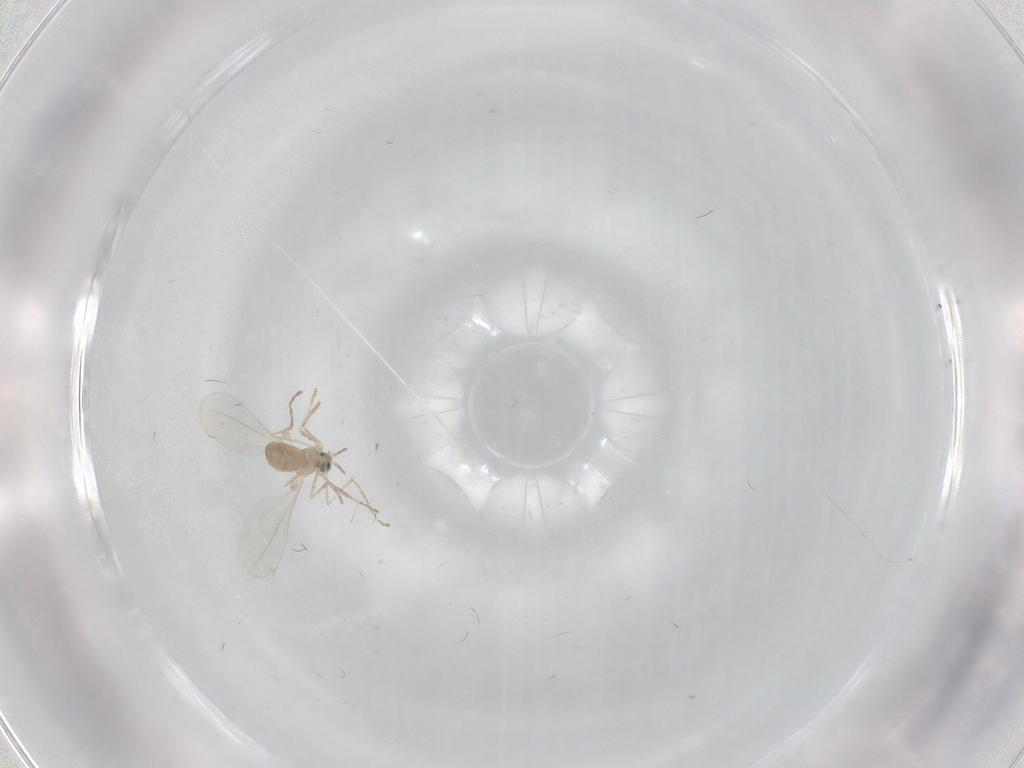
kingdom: Animalia
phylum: Arthropoda
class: Insecta
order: Diptera
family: Cecidomyiidae
